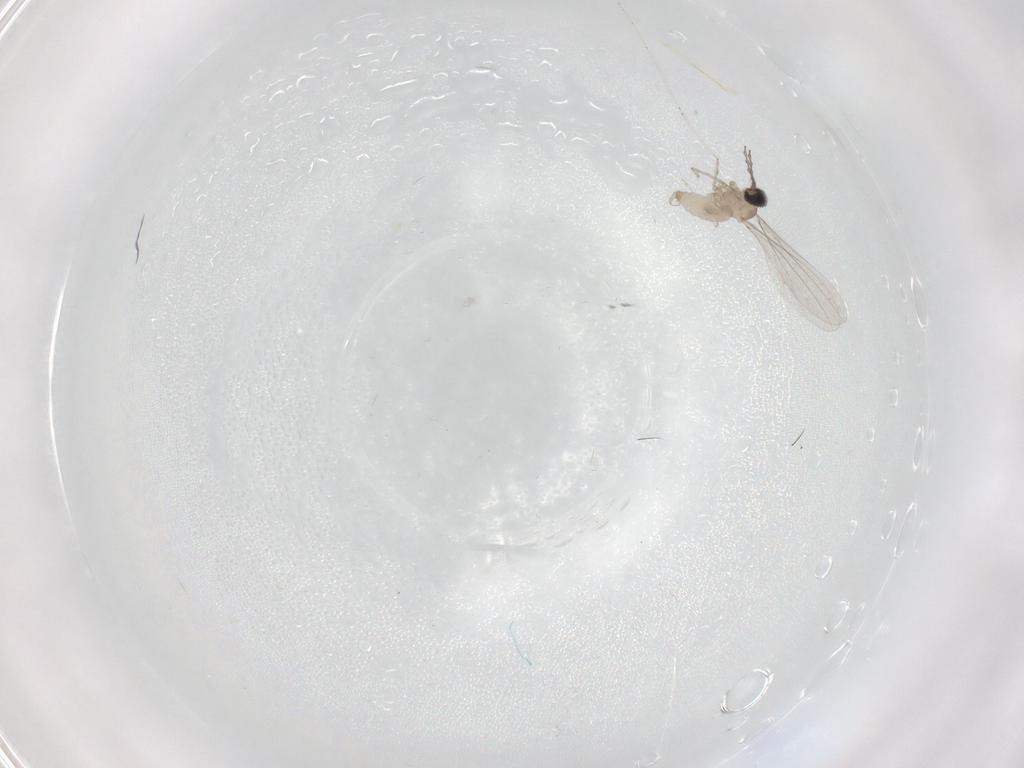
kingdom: Animalia
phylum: Arthropoda
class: Insecta
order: Diptera
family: Cecidomyiidae
